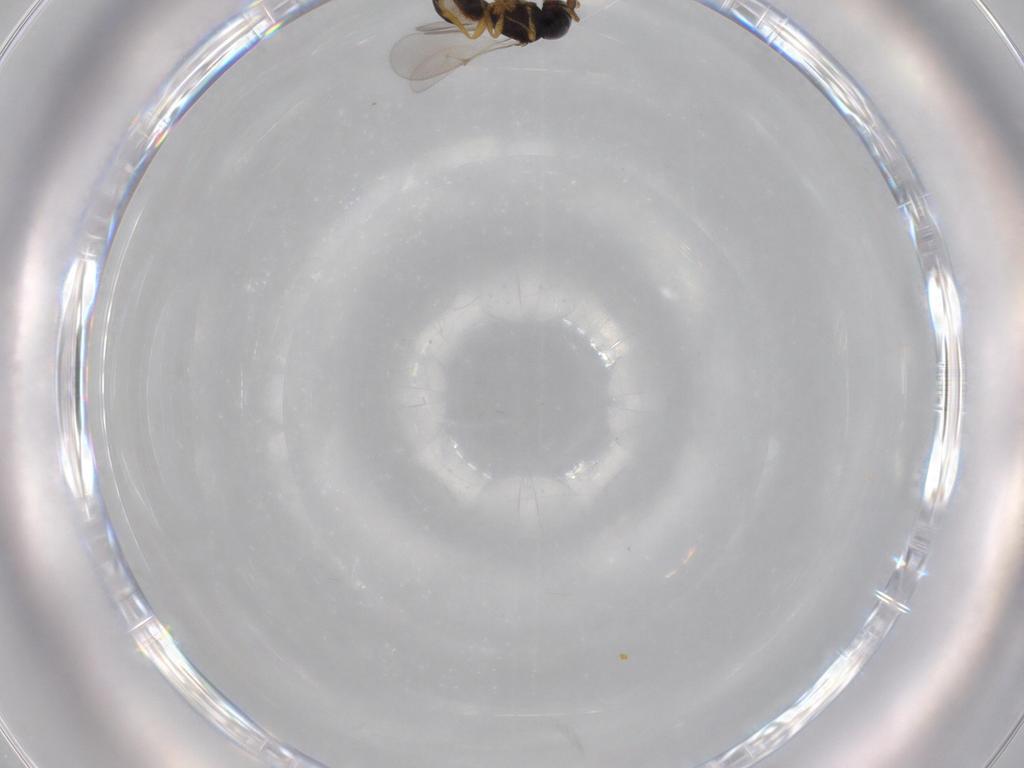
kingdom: Animalia
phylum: Arthropoda
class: Insecta
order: Hymenoptera
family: Scelionidae
